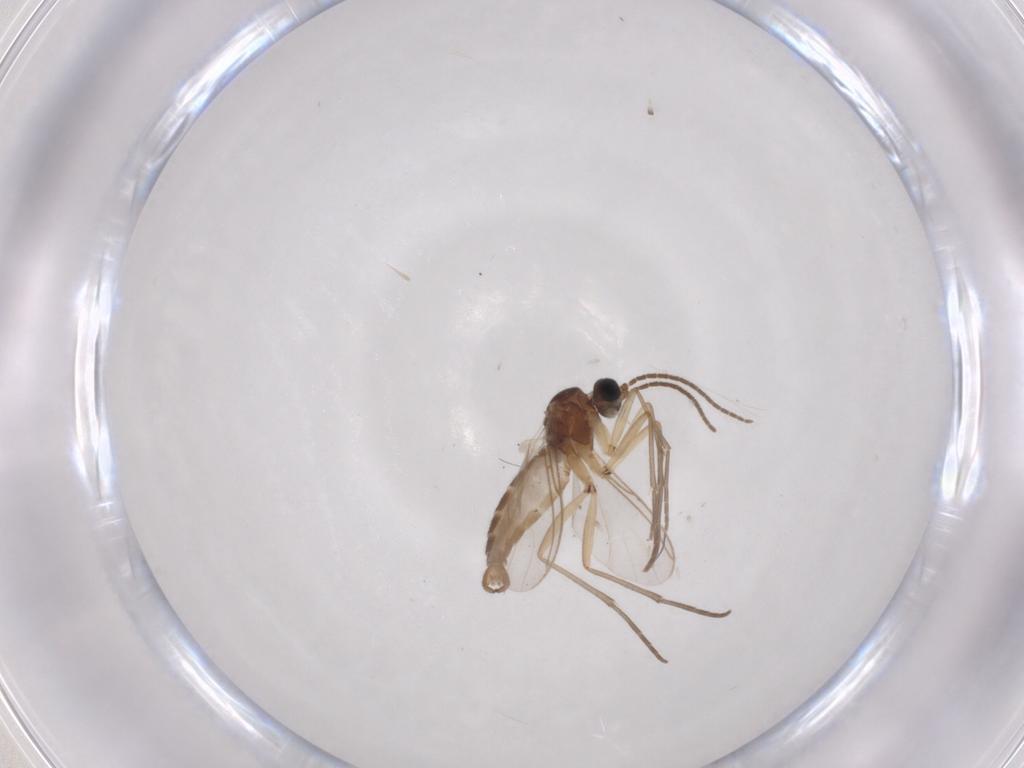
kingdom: Animalia
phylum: Arthropoda
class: Insecta
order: Diptera
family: Sciaridae
